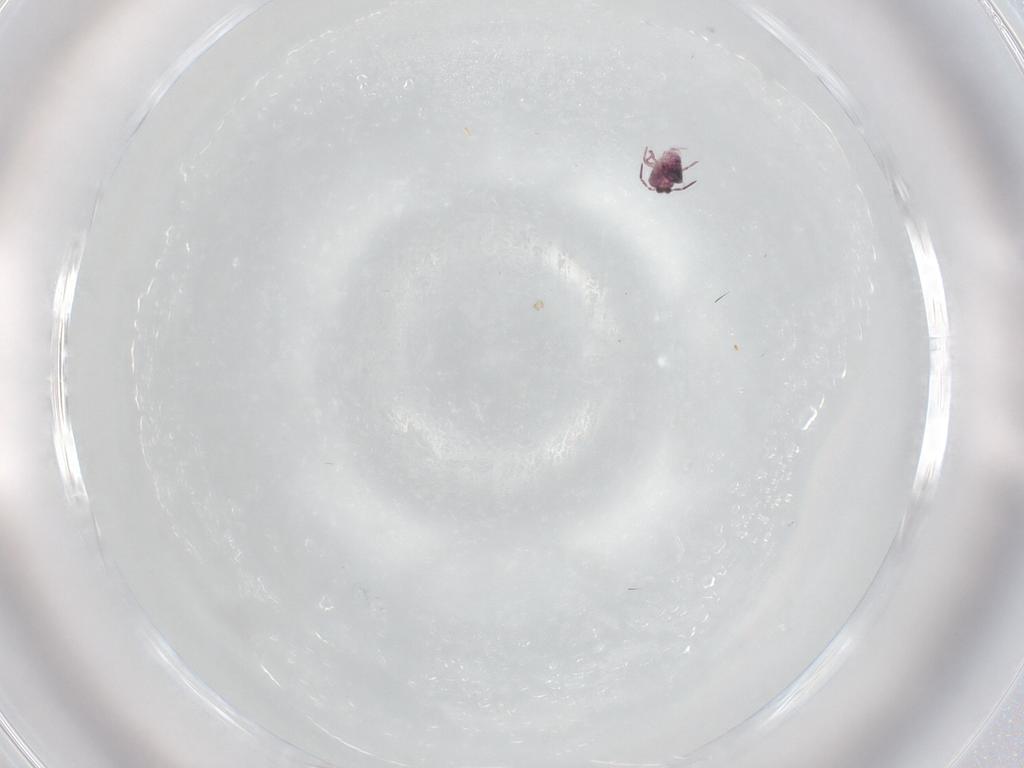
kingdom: Animalia
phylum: Arthropoda
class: Collembola
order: Symphypleona
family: Sminthurididae
